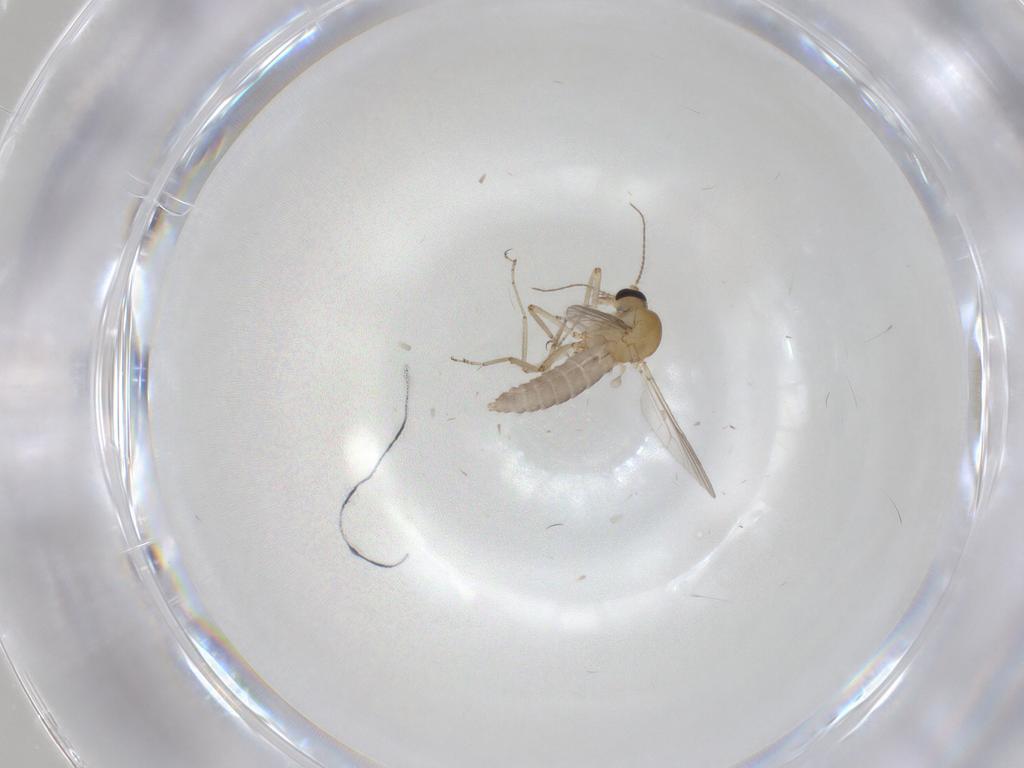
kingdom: Animalia
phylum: Arthropoda
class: Insecta
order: Diptera
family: Ceratopogonidae
